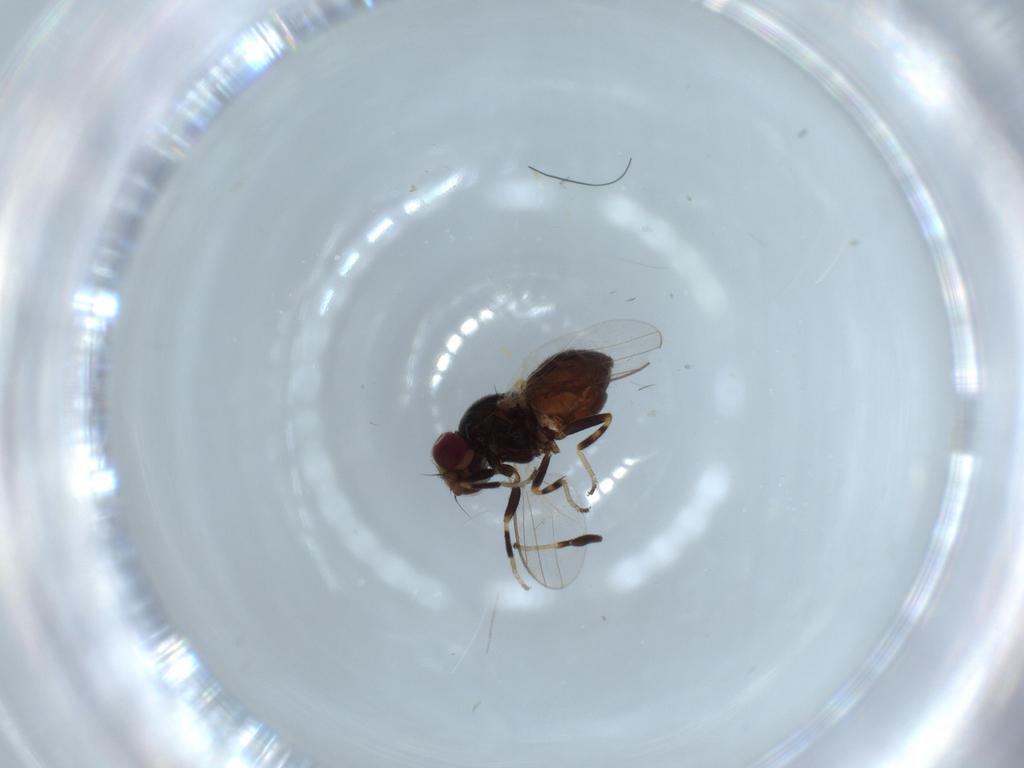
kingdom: Animalia
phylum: Arthropoda
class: Insecta
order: Diptera
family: Chloropidae
